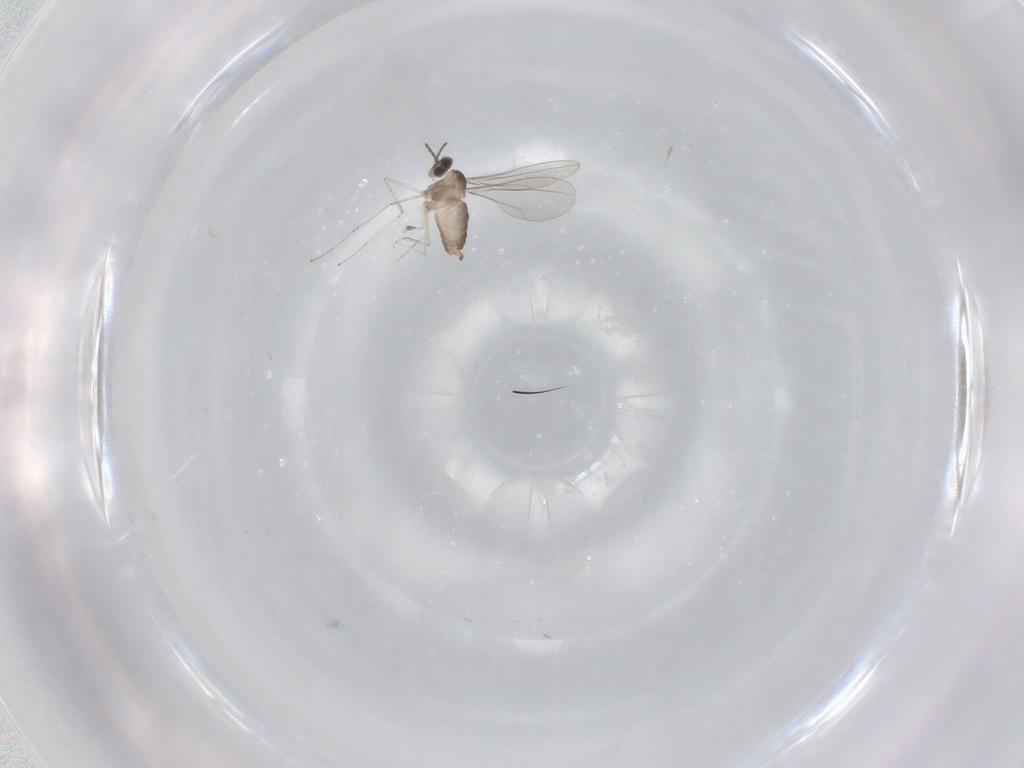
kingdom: Animalia
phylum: Arthropoda
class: Insecta
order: Diptera
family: Cecidomyiidae
